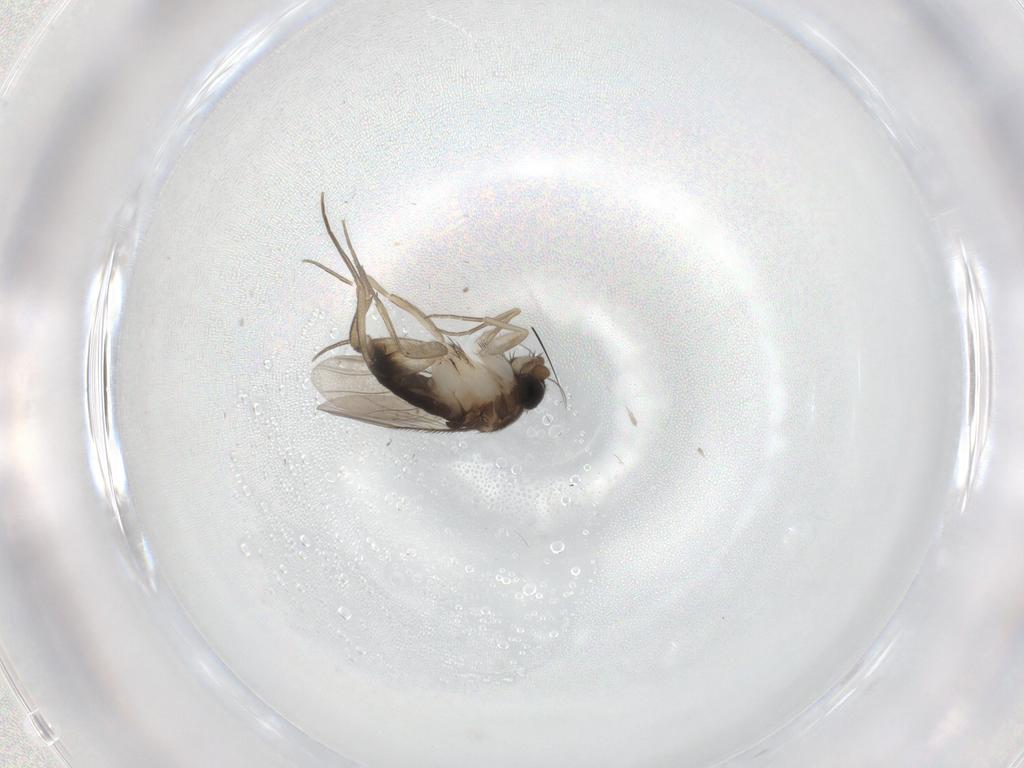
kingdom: Animalia
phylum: Arthropoda
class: Insecta
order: Diptera
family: Phoridae
